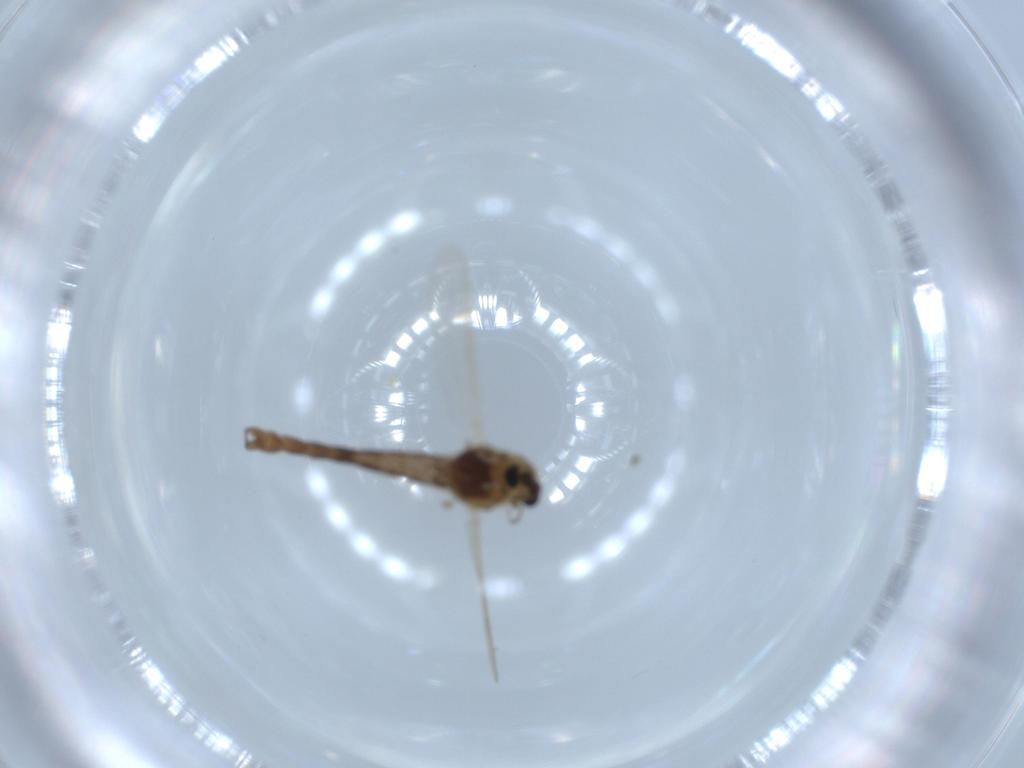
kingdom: Animalia
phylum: Arthropoda
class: Insecta
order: Diptera
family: Chironomidae
